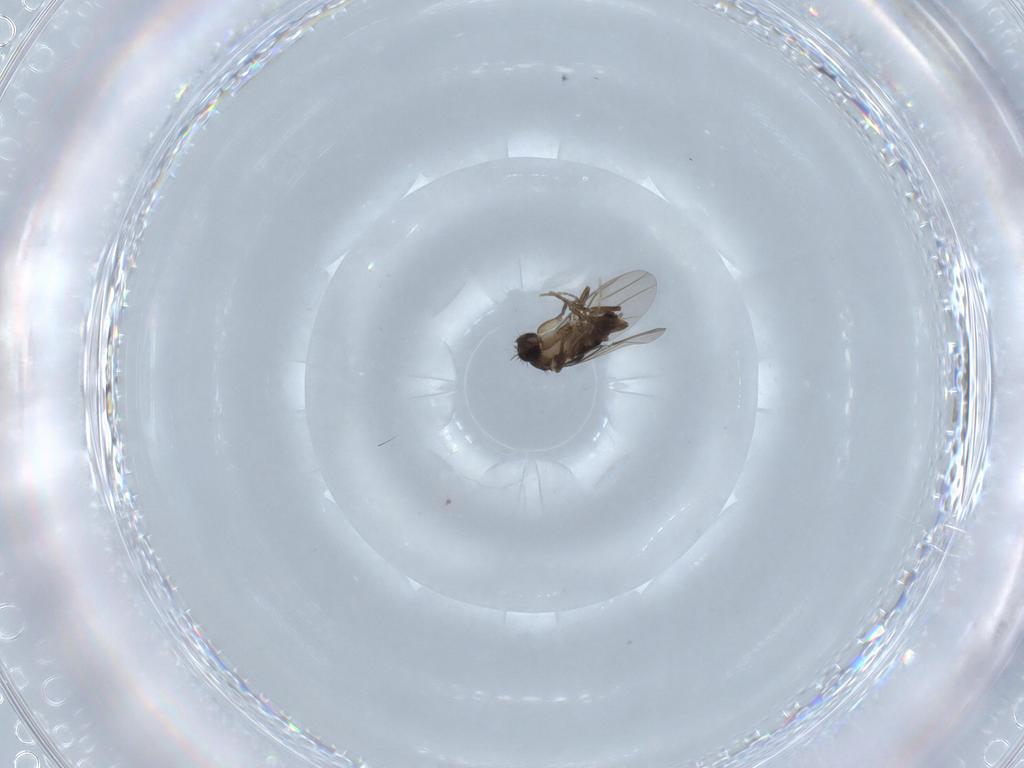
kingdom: Animalia
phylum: Arthropoda
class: Insecta
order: Diptera
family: Phoridae
